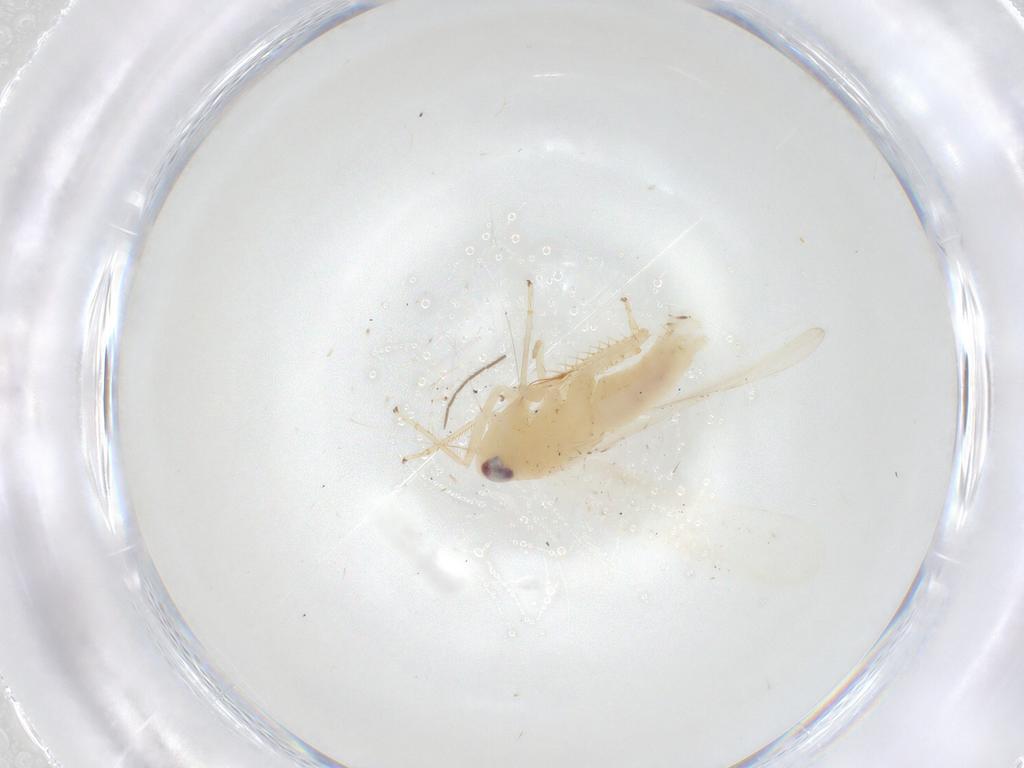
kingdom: Animalia
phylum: Arthropoda
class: Insecta
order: Hemiptera
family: Cicadellidae
